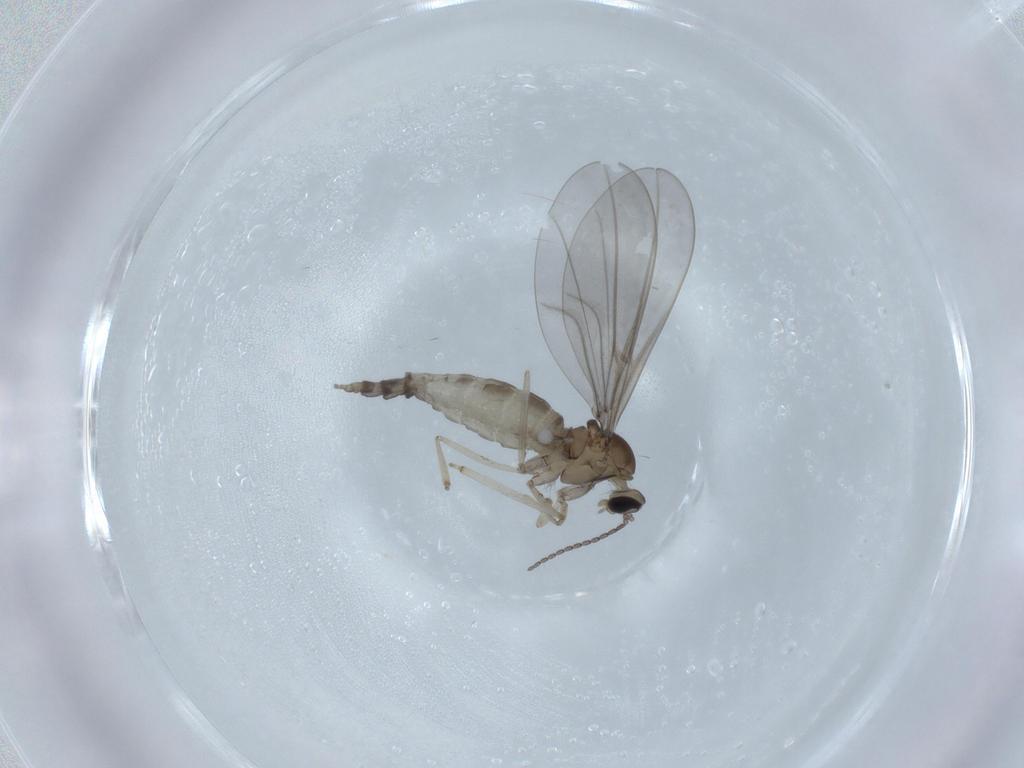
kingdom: Animalia
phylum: Arthropoda
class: Insecta
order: Diptera
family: Cecidomyiidae
